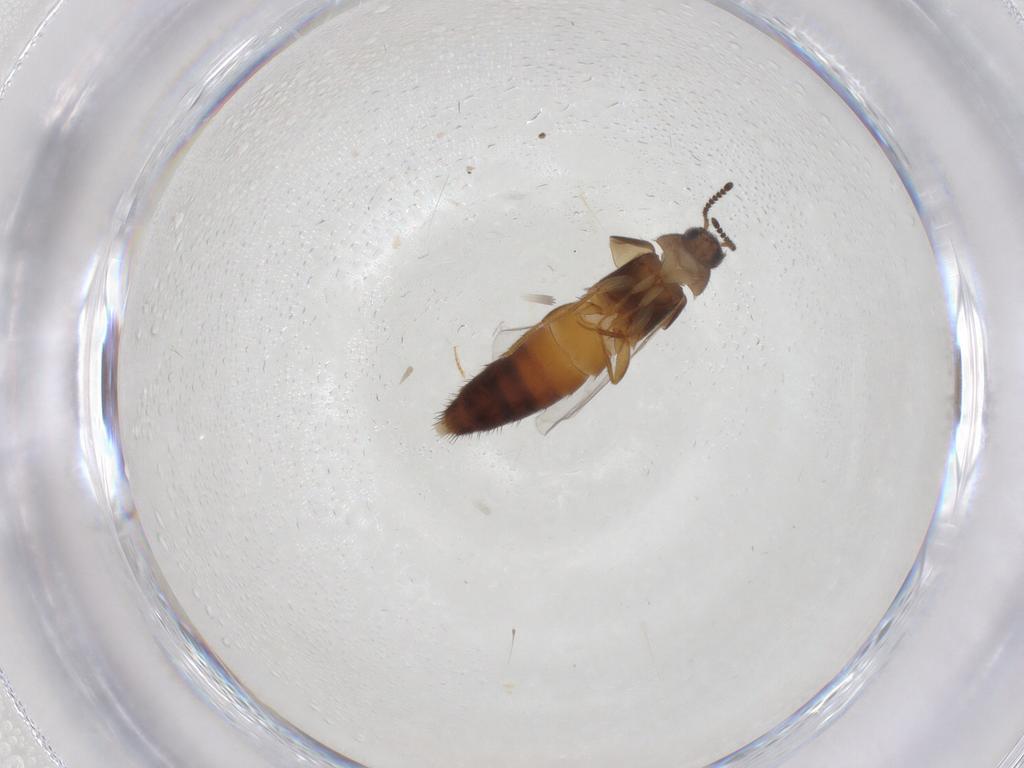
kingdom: Animalia
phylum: Arthropoda
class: Insecta
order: Coleoptera
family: Staphylinidae
